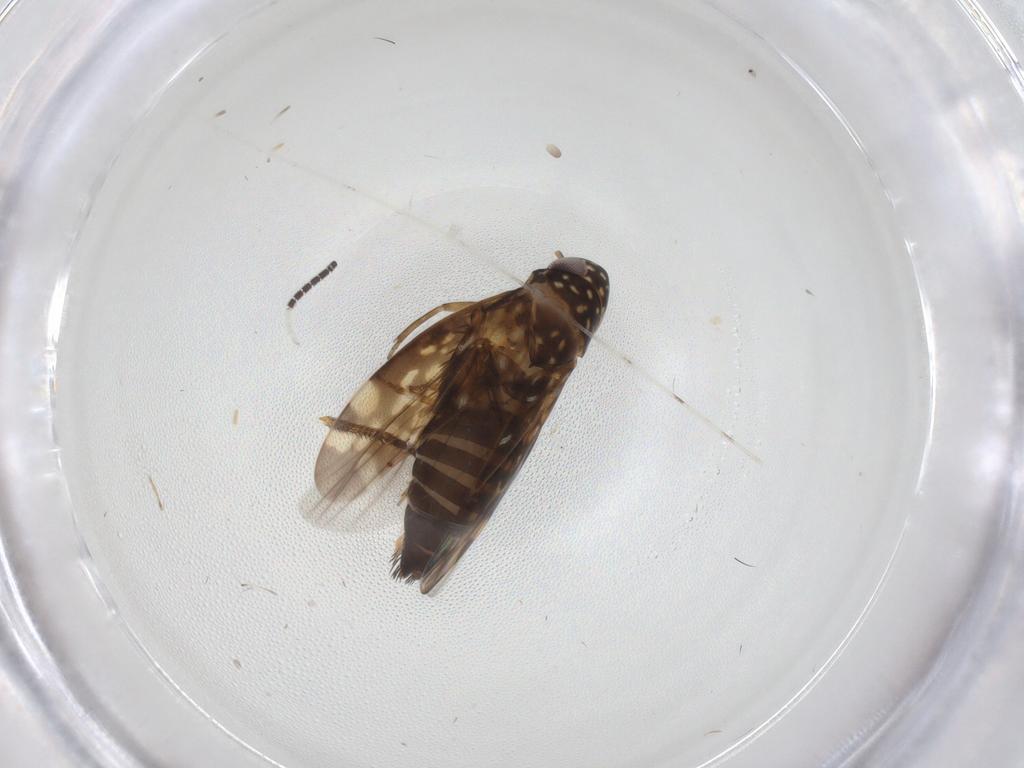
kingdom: Animalia
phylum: Arthropoda
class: Insecta
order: Hemiptera
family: Cicadellidae
